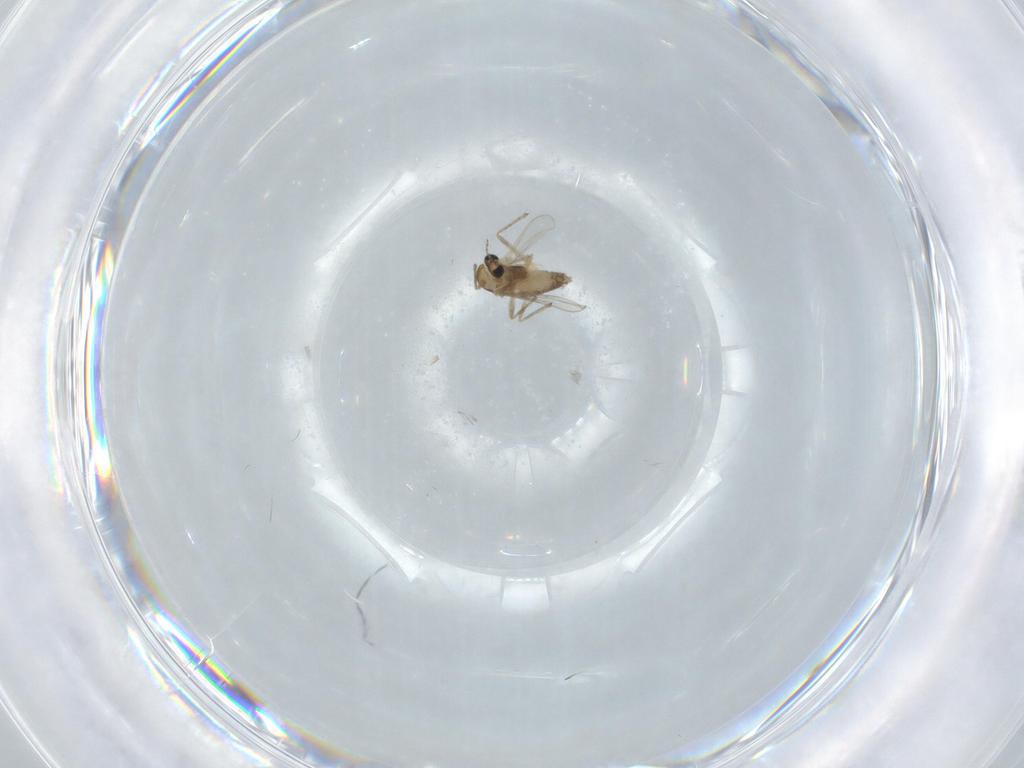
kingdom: Animalia
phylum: Arthropoda
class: Insecta
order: Diptera
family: Chironomidae
